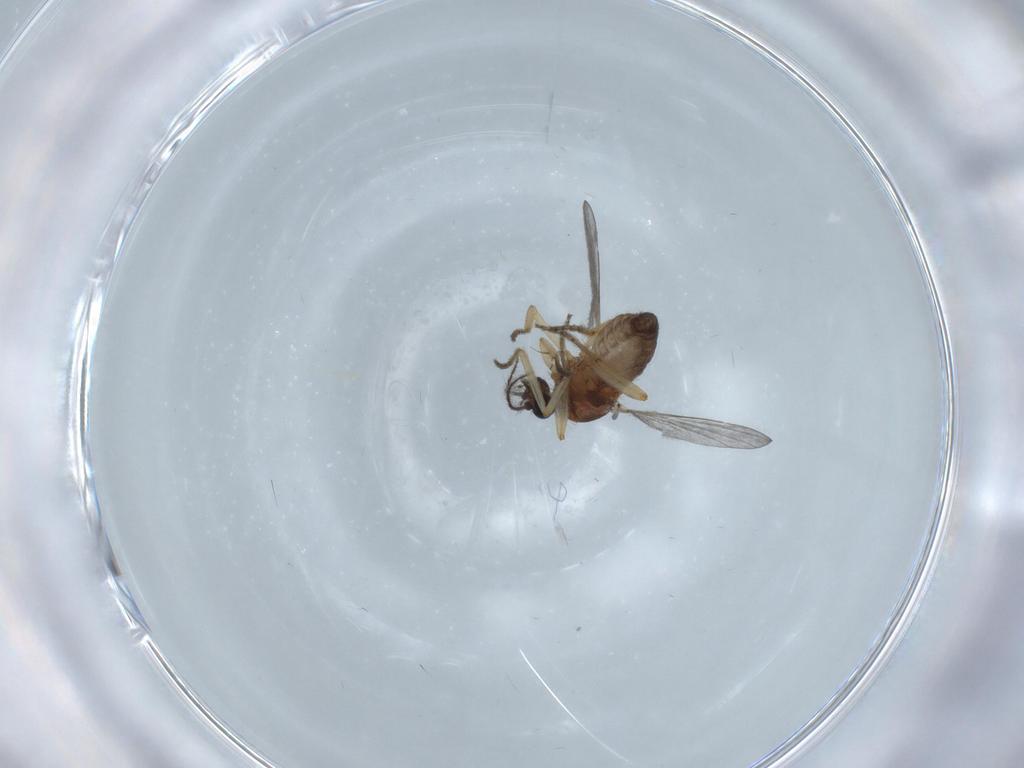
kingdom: Animalia
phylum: Arthropoda
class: Insecta
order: Diptera
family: Ceratopogonidae
